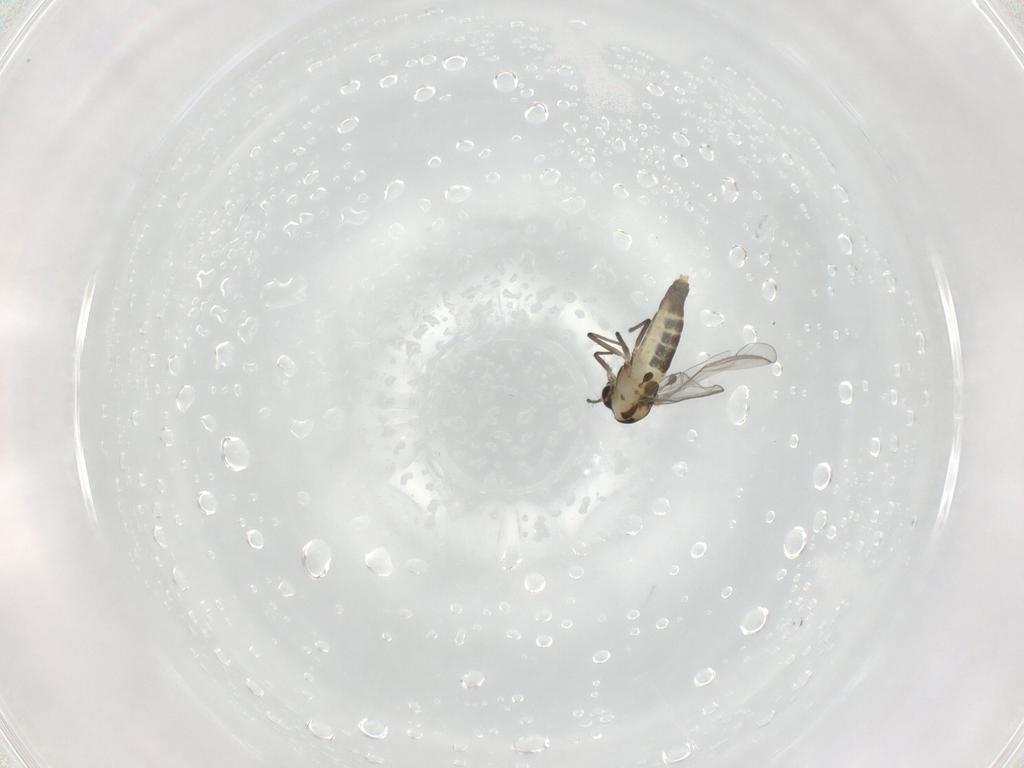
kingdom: Animalia
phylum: Arthropoda
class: Insecta
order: Diptera
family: Chironomidae
